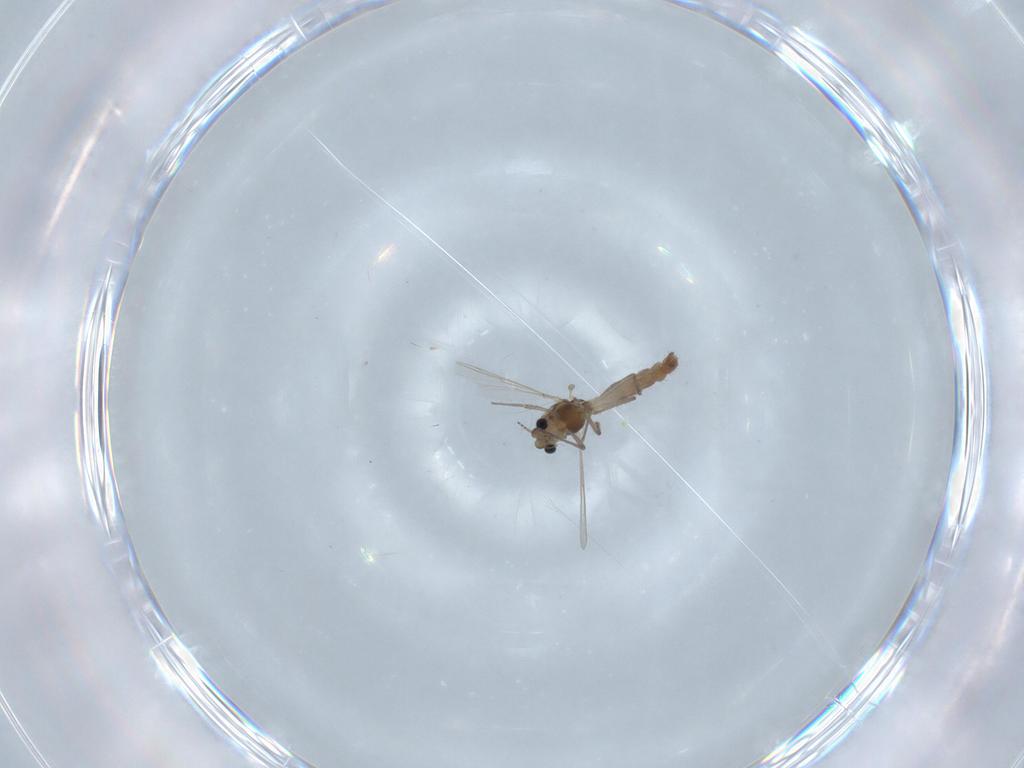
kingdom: Animalia
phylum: Arthropoda
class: Insecta
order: Diptera
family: Chironomidae
